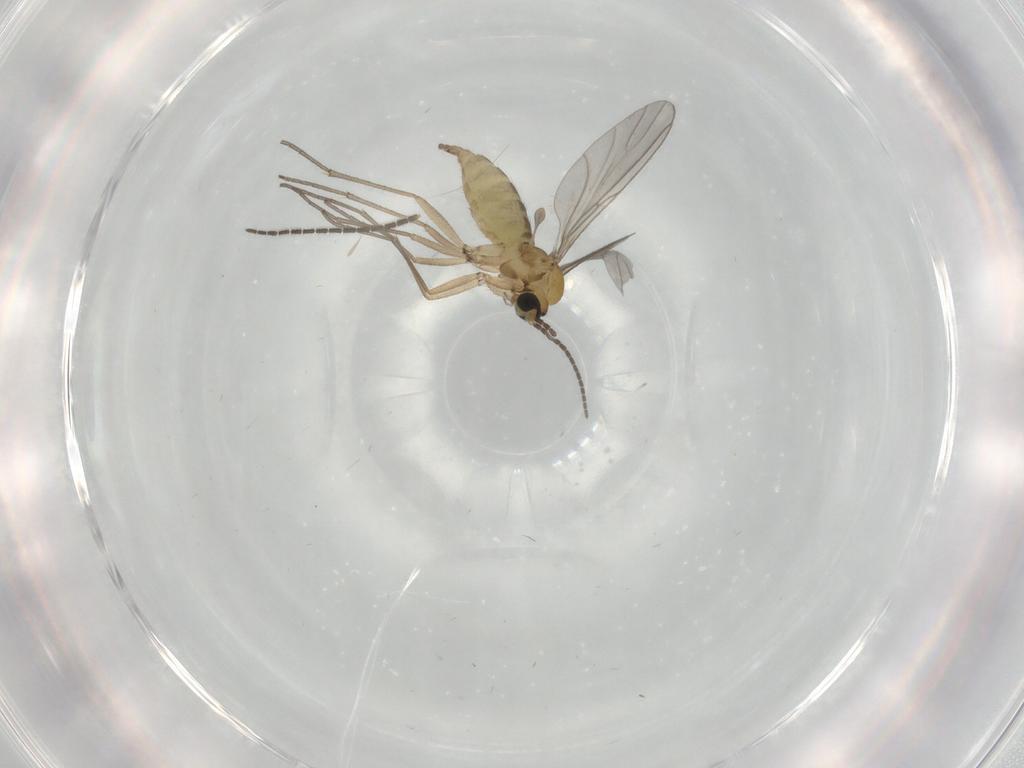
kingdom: Animalia
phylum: Arthropoda
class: Insecta
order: Diptera
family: Sciaridae
